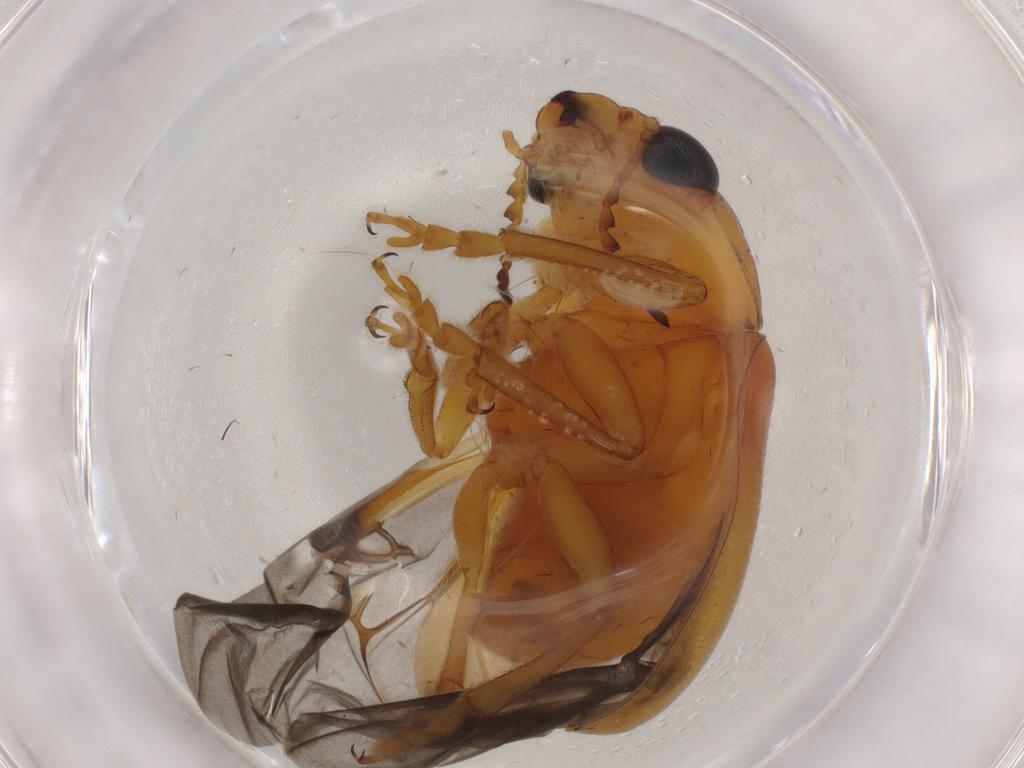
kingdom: Animalia
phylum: Arthropoda
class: Insecta
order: Coleoptera
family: Chrysomelidae
